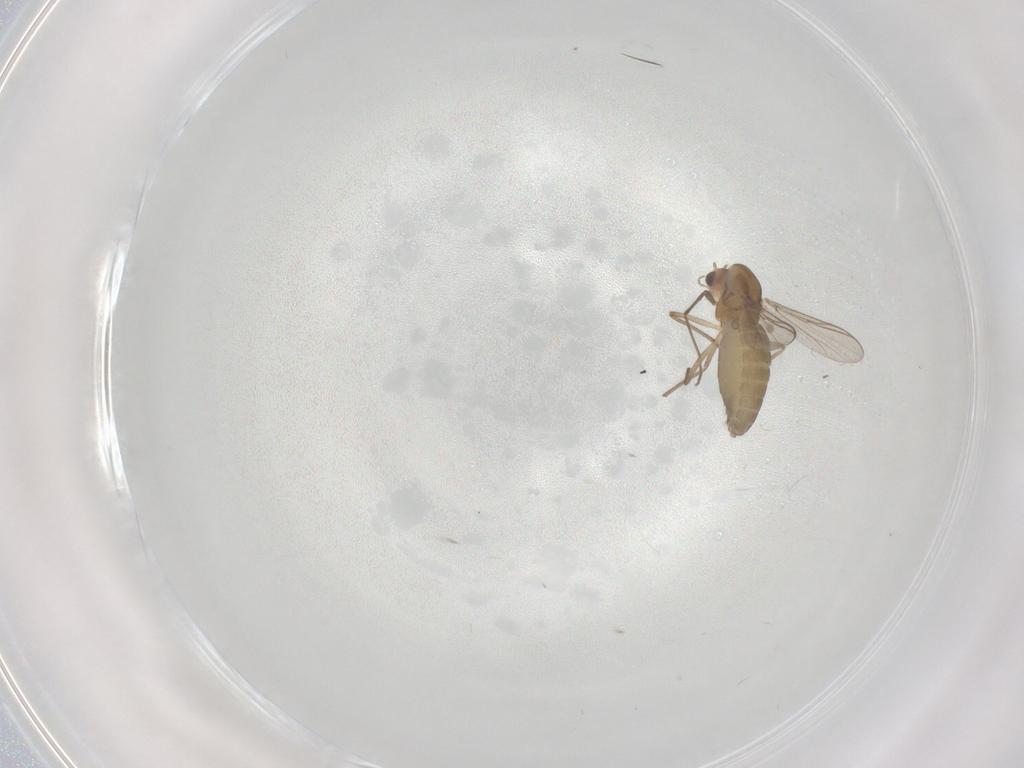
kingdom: Animalia
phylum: Arthropoda
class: Insecta
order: Diptera
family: Chironomidae
